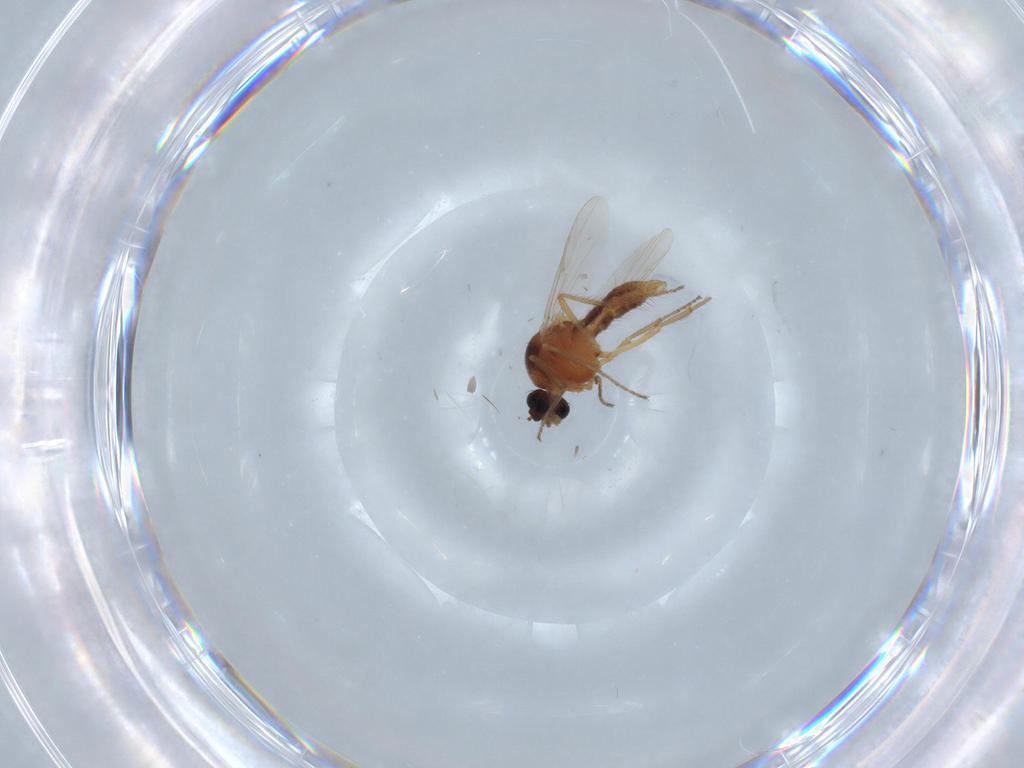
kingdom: Animalia
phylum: Arthropoda
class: Insecta
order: Diptera
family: Ceratopogonidae
